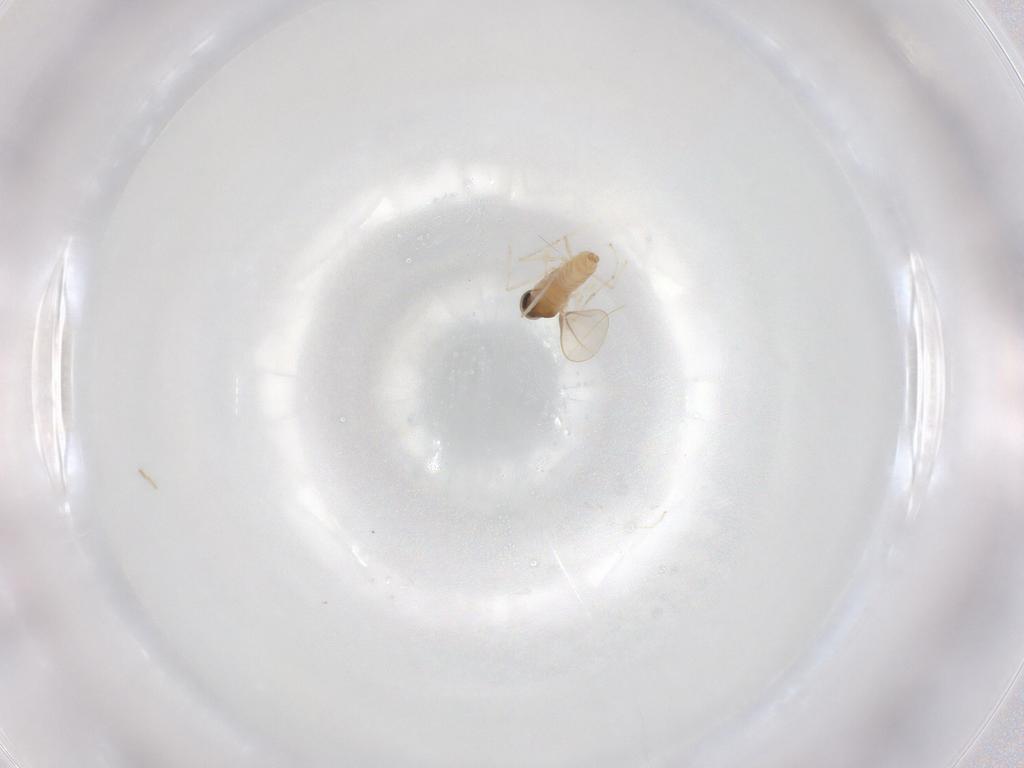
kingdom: Animalia
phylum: Arthropoda
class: Insecta
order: Diptera
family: Cecidomyiidae
